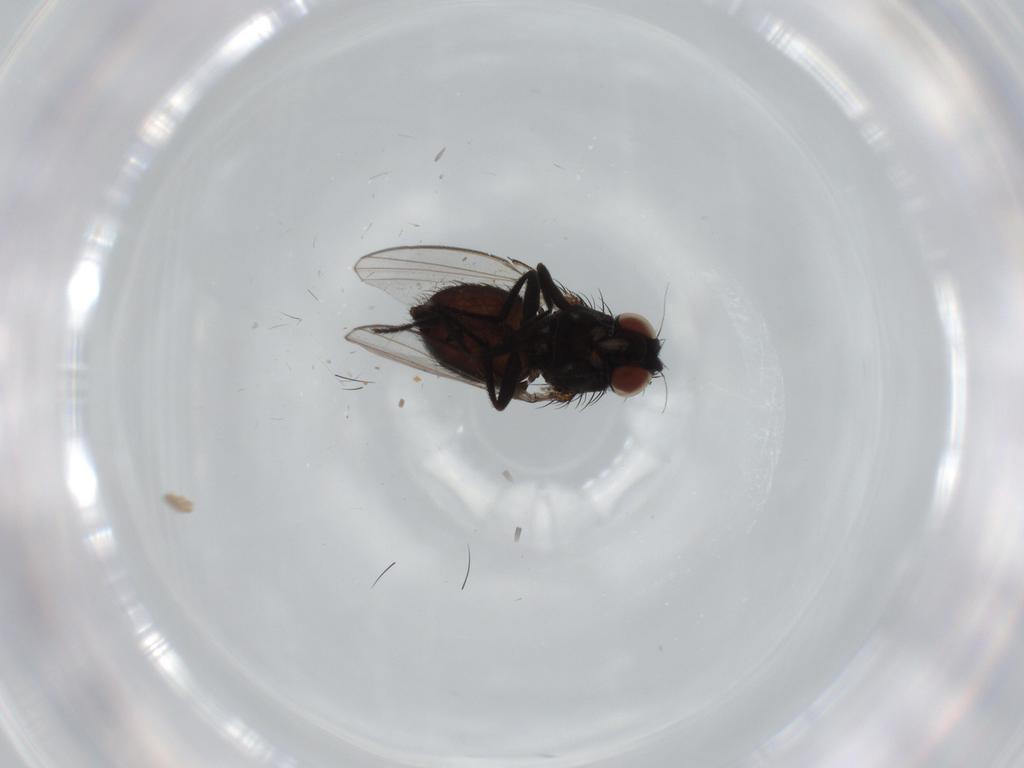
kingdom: Animalia
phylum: Arthropoda
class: Insecta
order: Diptera
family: Milichiidae
